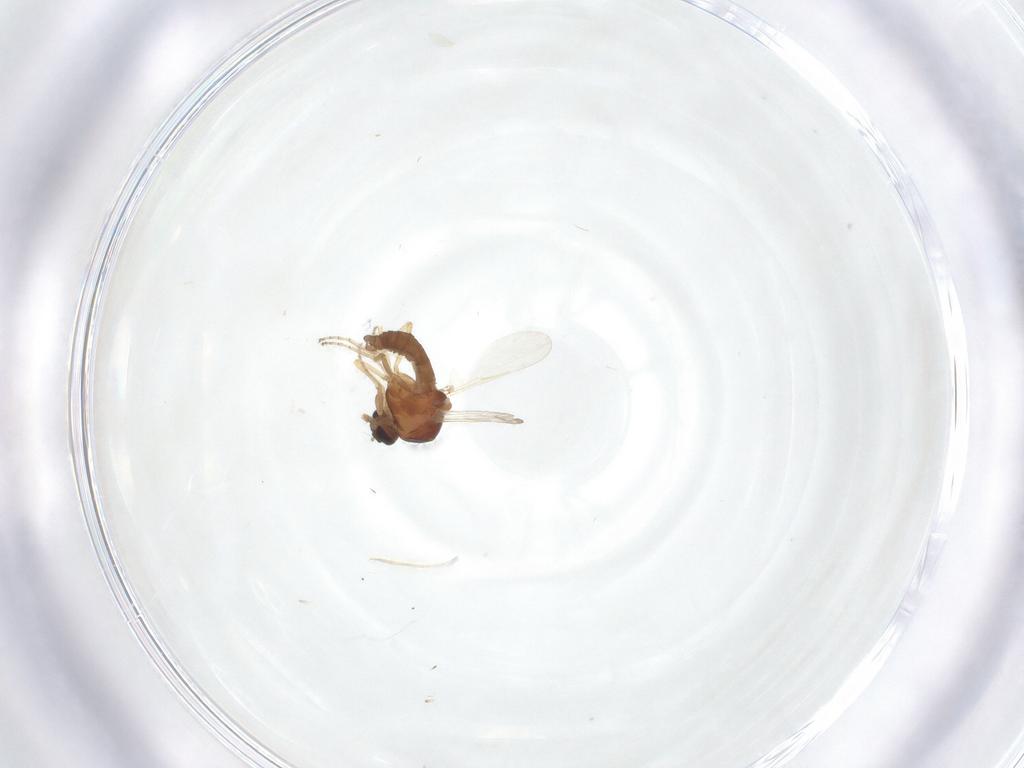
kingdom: Animalia
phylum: Arthropoda
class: Insecta
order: Diptera
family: Ceratopogonidae
